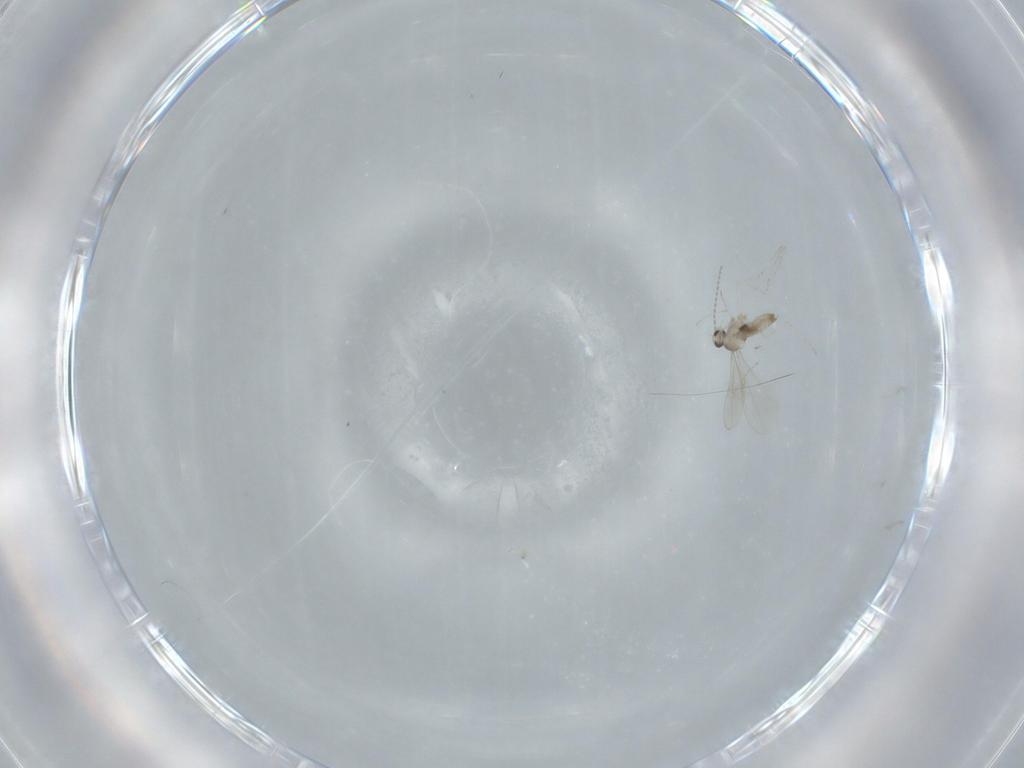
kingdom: Animalia
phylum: Arthropoda
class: Insecta
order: Diptera
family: Cecidomyiidae
